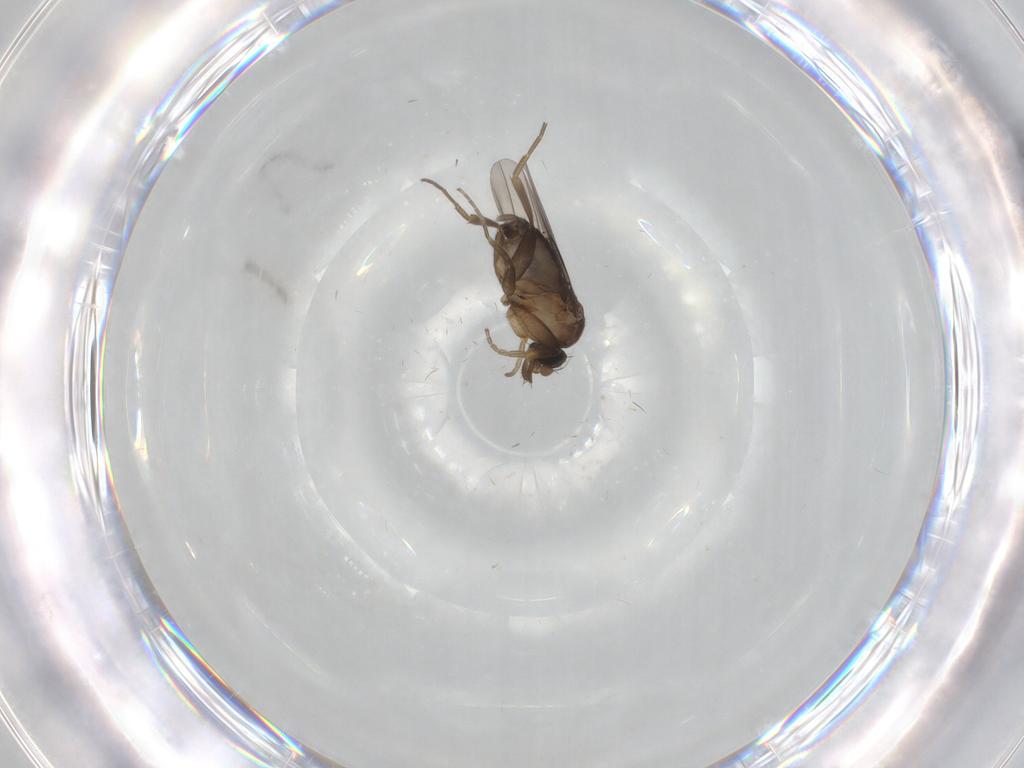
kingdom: Animalia
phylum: Arthropoda
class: Insecta
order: Diptera
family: Phoridae
